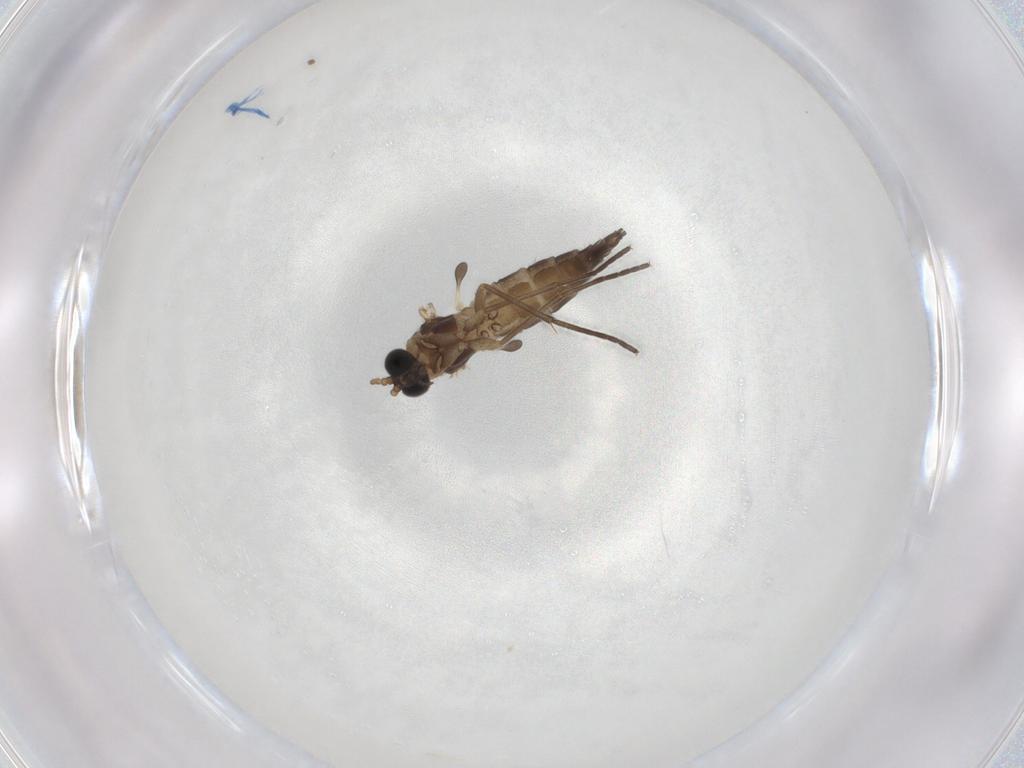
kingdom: Animalia
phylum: Arthropoda
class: Insecta
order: Diptera
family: Sciaridae
